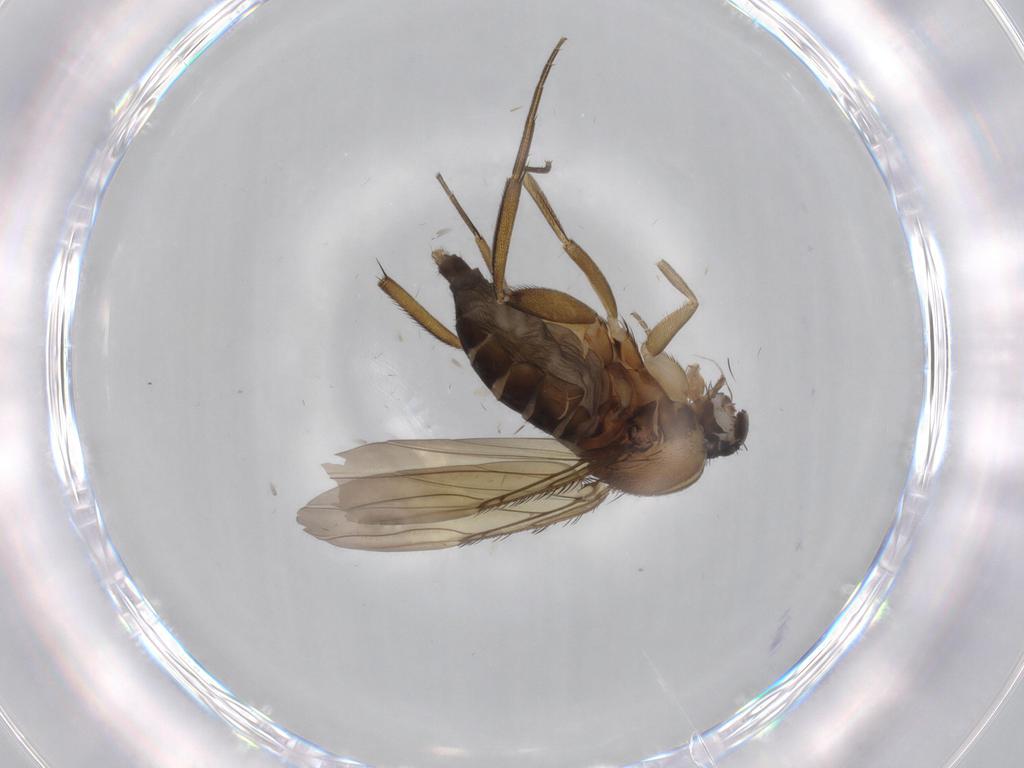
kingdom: Animalia
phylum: Arthropoda
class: Insecta
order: Diptera
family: Phoridae
